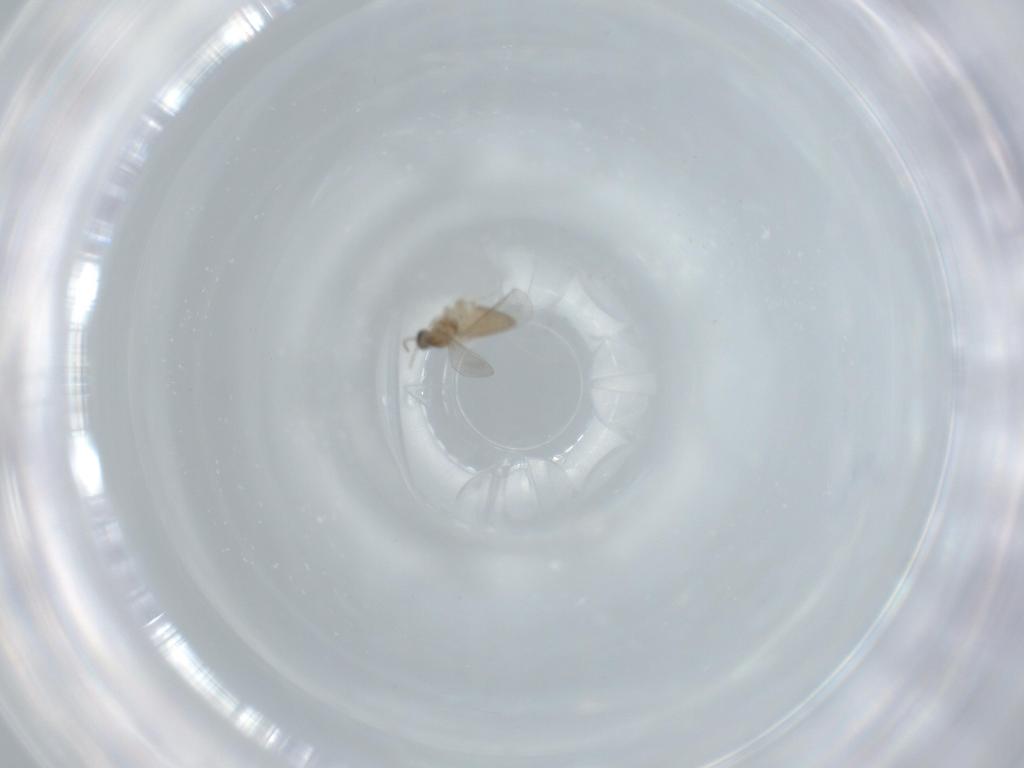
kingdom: Animalia
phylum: Arthropoda
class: Insecta
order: Diptera
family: Cecidomyiidae
